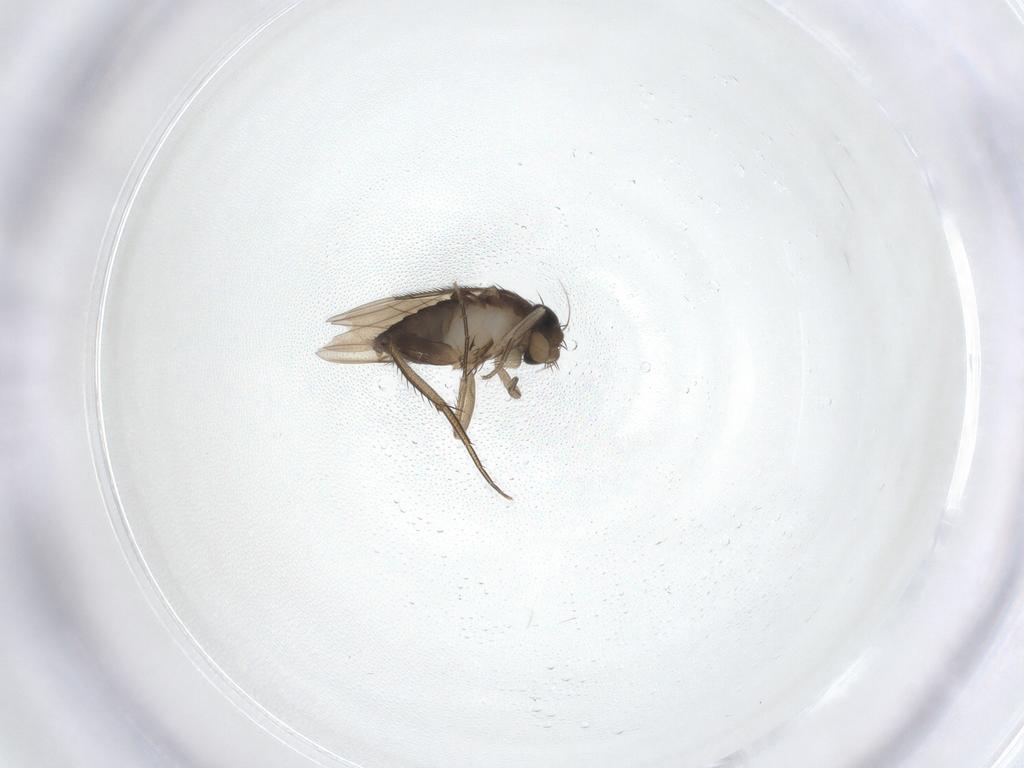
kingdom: Animalia
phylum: Arthropoda
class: Insecta
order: Diptera
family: Phoridae
